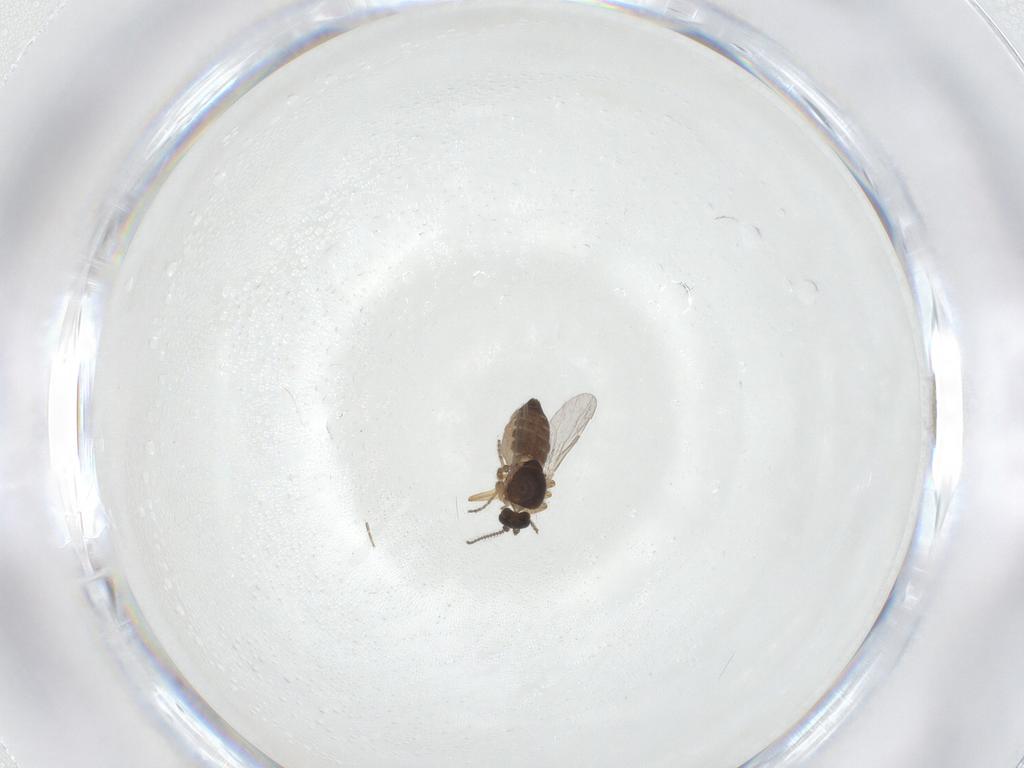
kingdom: Animalia
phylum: Arthropoda
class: Insecta
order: Diptera
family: Ceratopogonidae
